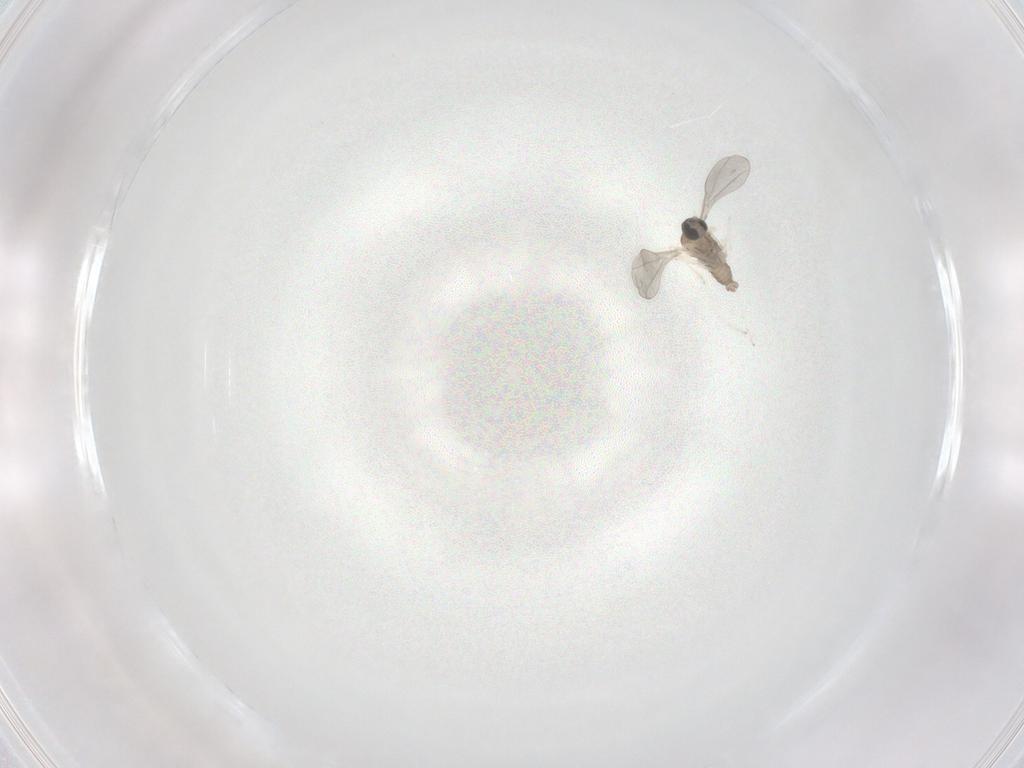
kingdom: Animalia
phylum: Arthropoda
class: Insecta
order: Diptera
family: Cecidomyiidae
